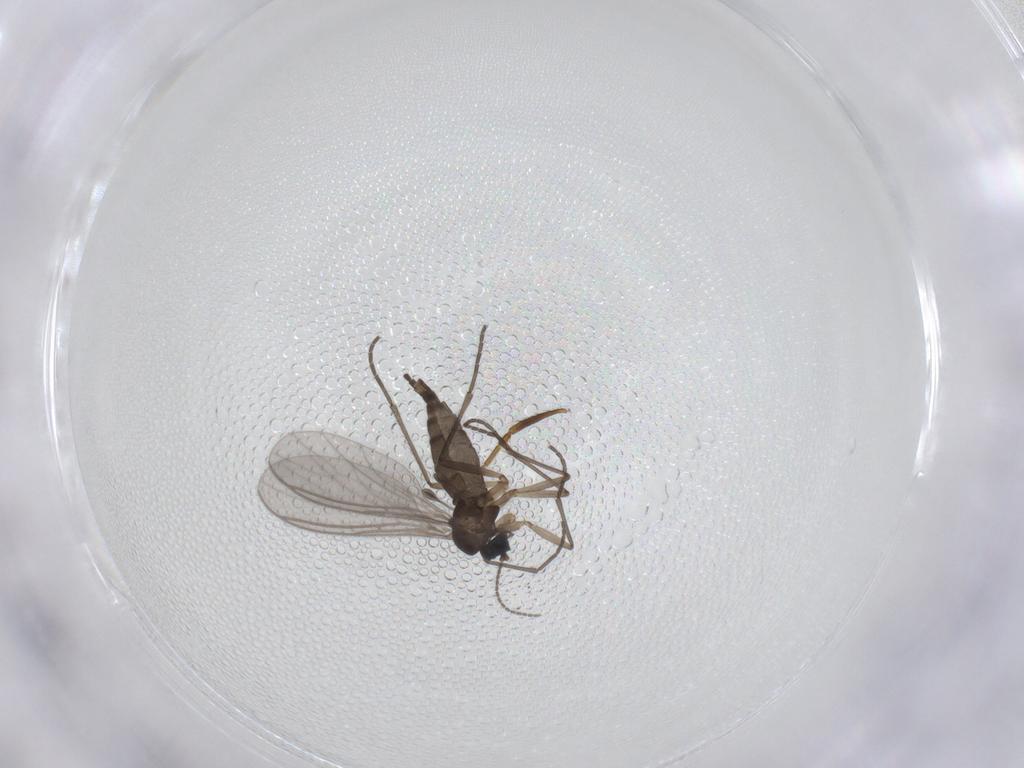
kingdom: Animalia
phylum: Arthropoda
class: Insecta
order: Diptera
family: Sciaridae
